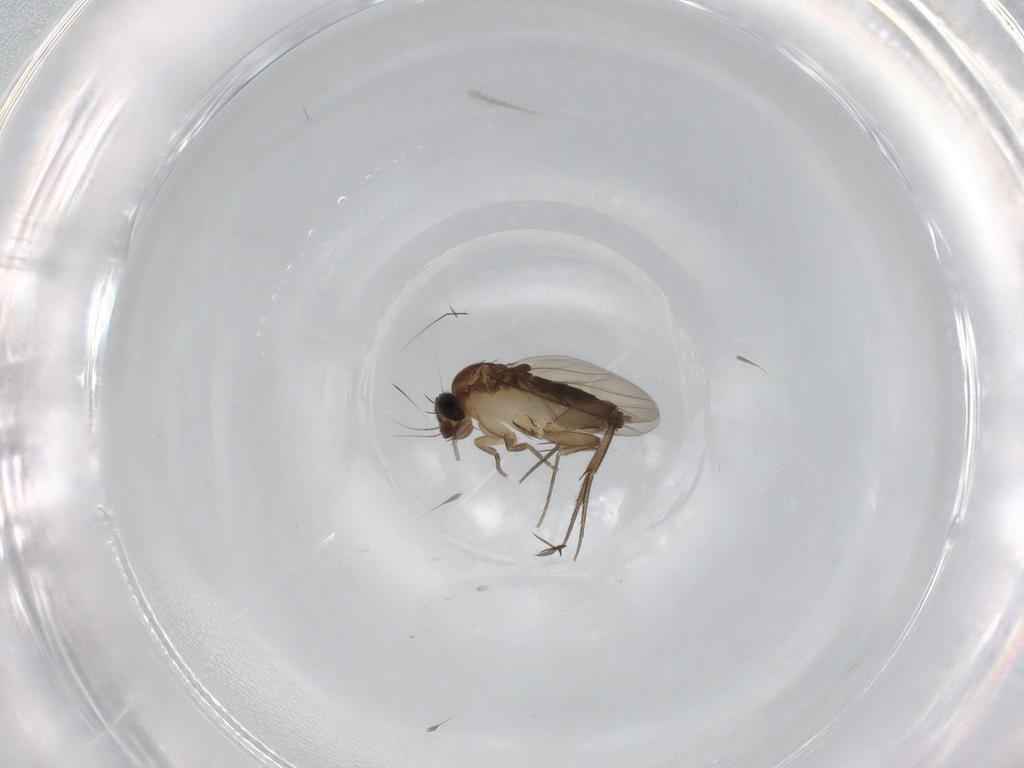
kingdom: Animalia
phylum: Arthropoda
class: Insecta
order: Diptera
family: Phoridae
